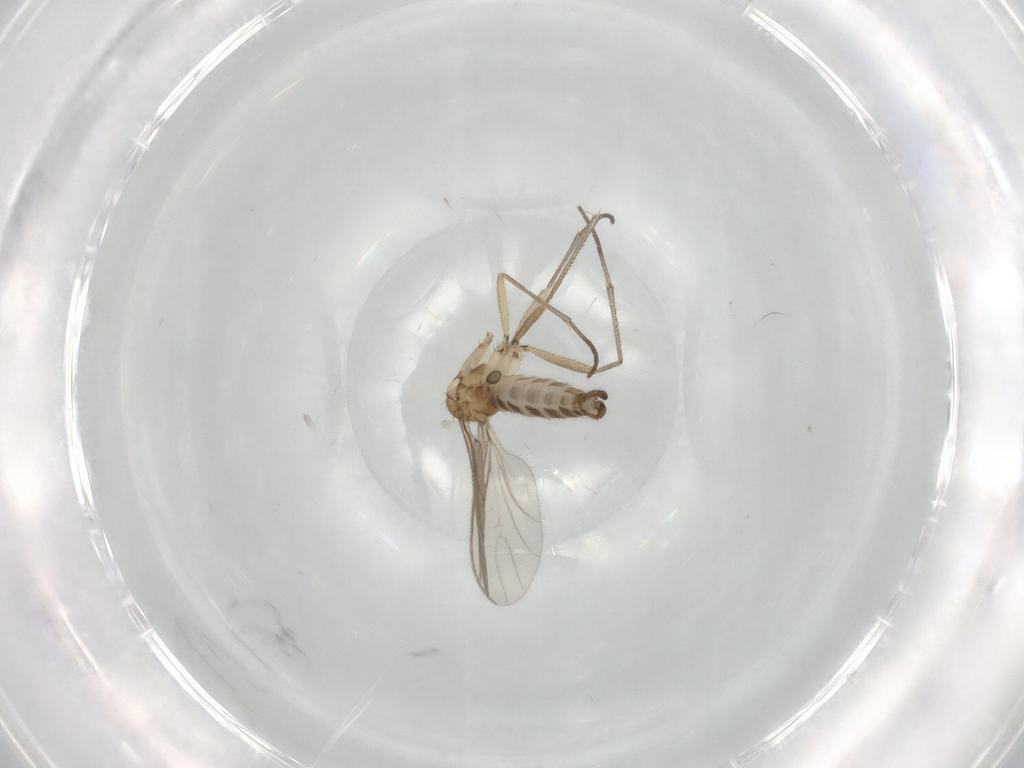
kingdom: Animalia
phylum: Arthropoda
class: Insecta
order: Diptera
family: Sciaridae
